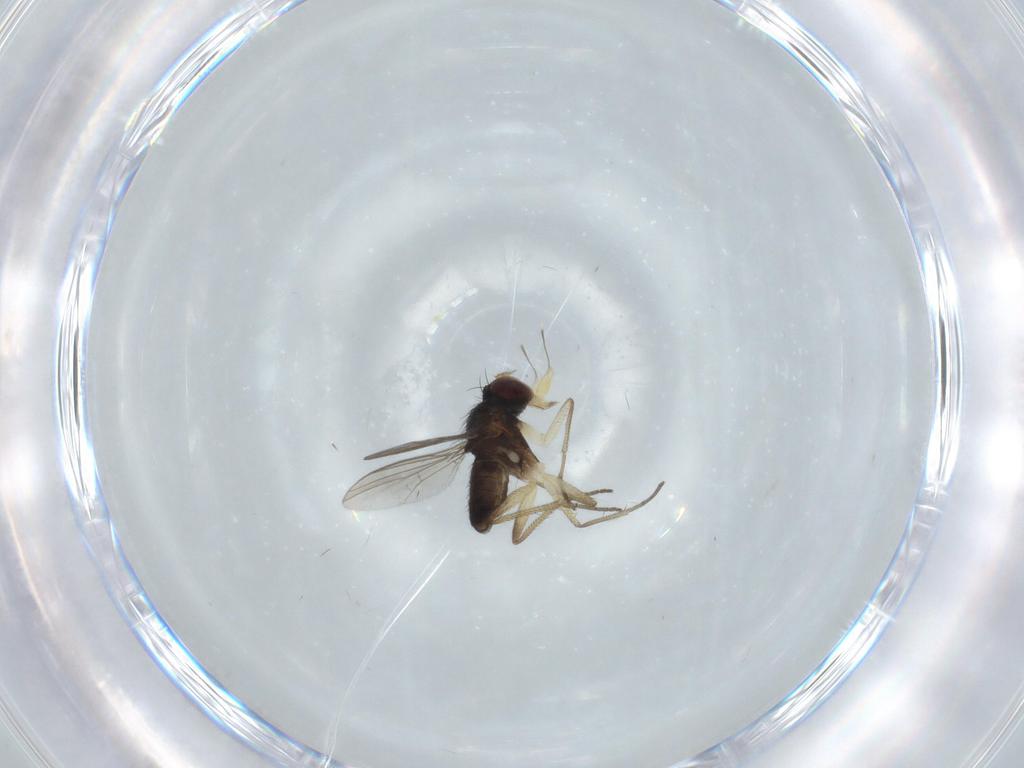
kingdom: Animalia
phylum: Arthropoda
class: Insecta
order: Diptera
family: Dolichopodidae
